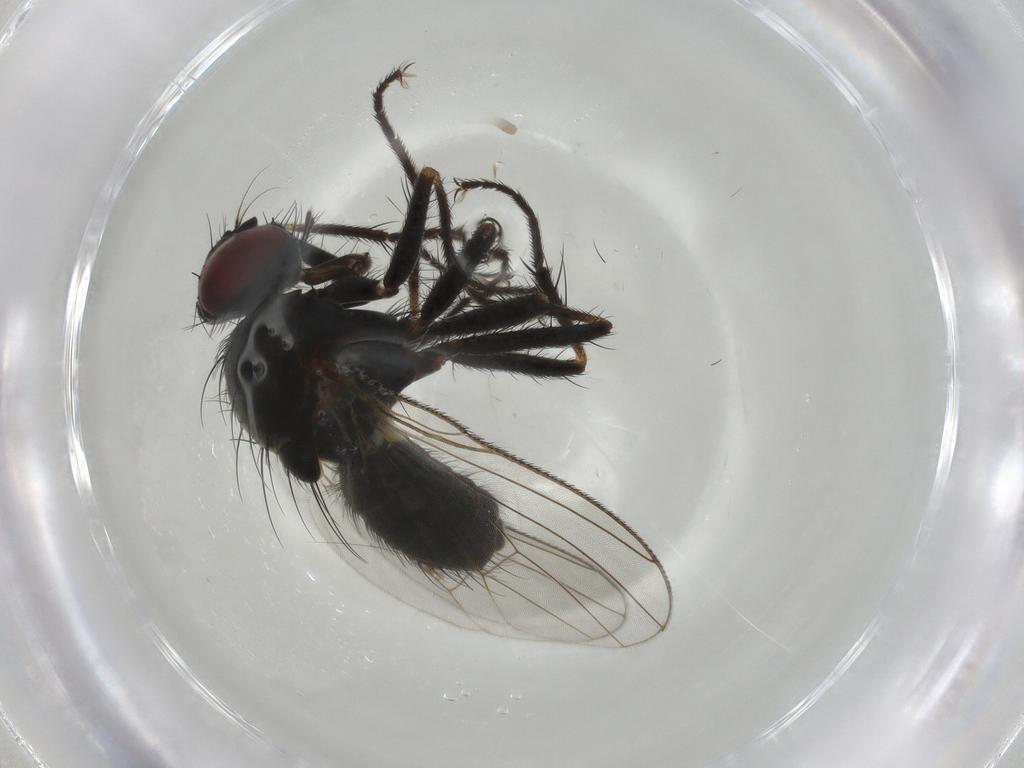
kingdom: Animalia
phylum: Arthropoda
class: Insecta
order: Diptera
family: Muscidae
